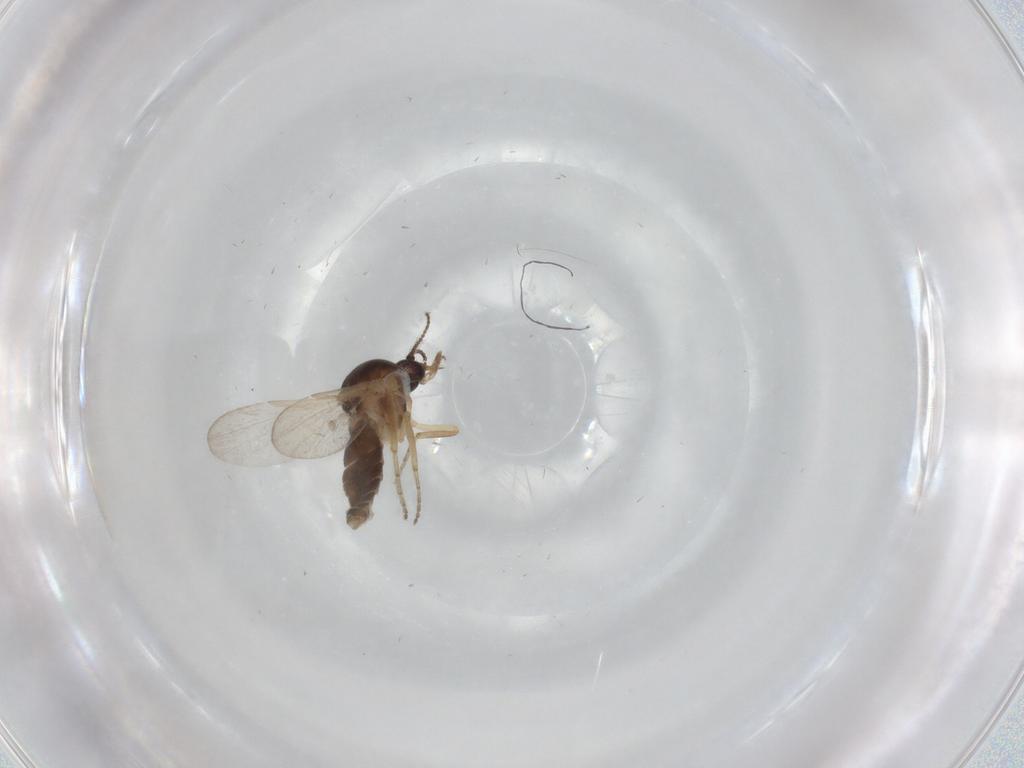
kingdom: Animalia
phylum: Arthropoda
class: Insecta
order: Diptera
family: Ceratopogonidae
